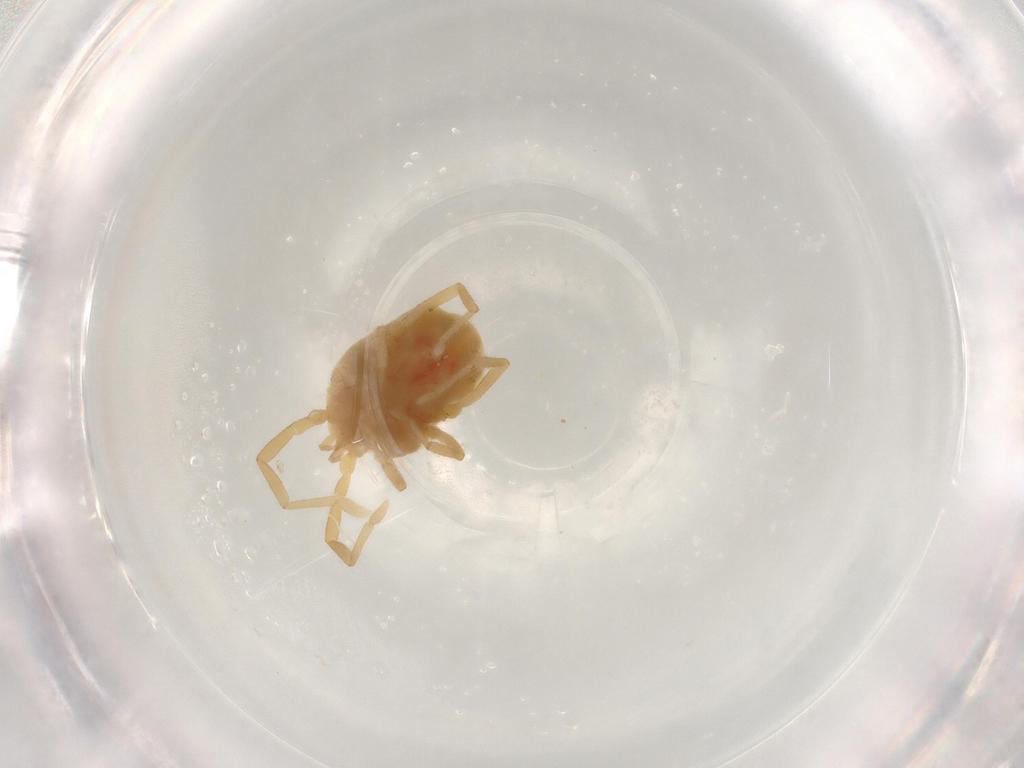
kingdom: Animalia
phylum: Arthropoda
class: Arachnida
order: Trombidiformes
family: Erythraeidae
